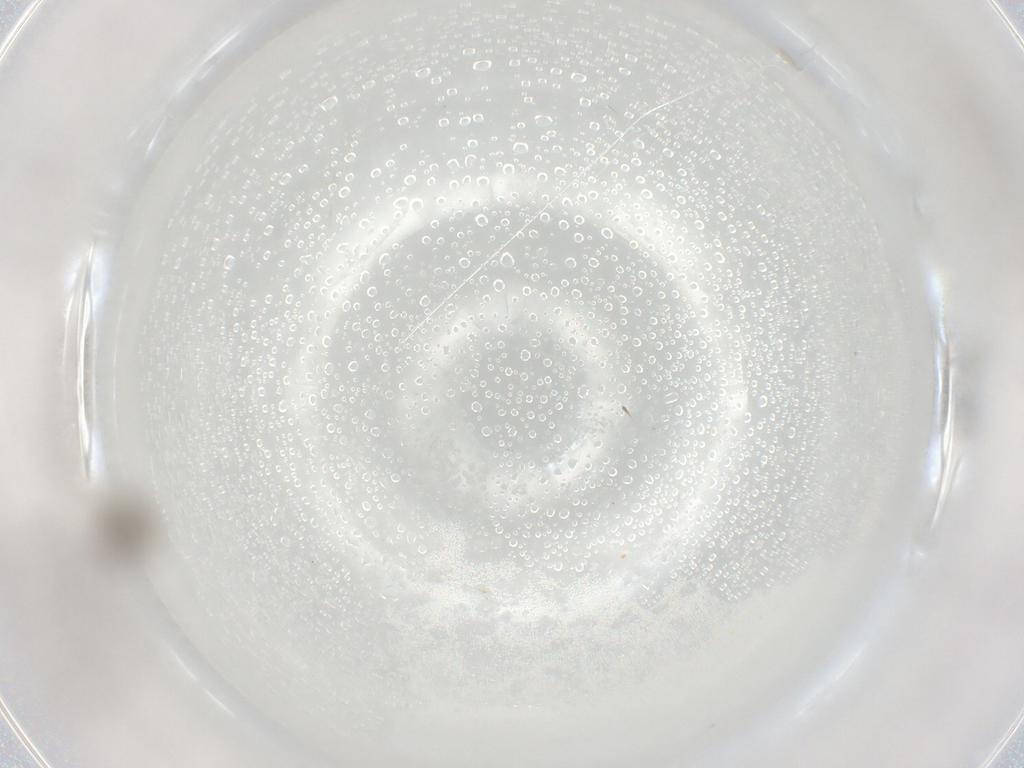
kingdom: Animalia
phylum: Arthropoda
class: Insecta
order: Diptera
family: Cecidomyiidae
